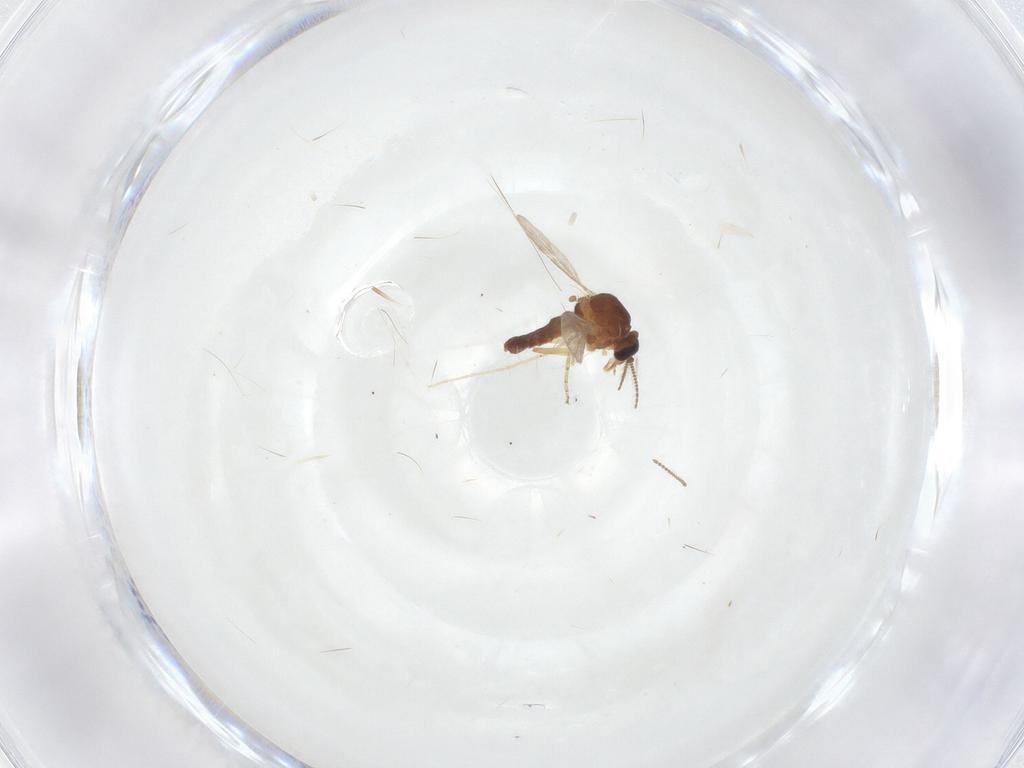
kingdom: Animalia
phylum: Arthropoda
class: Insecta
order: Diptera
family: Ceratopogonidae
